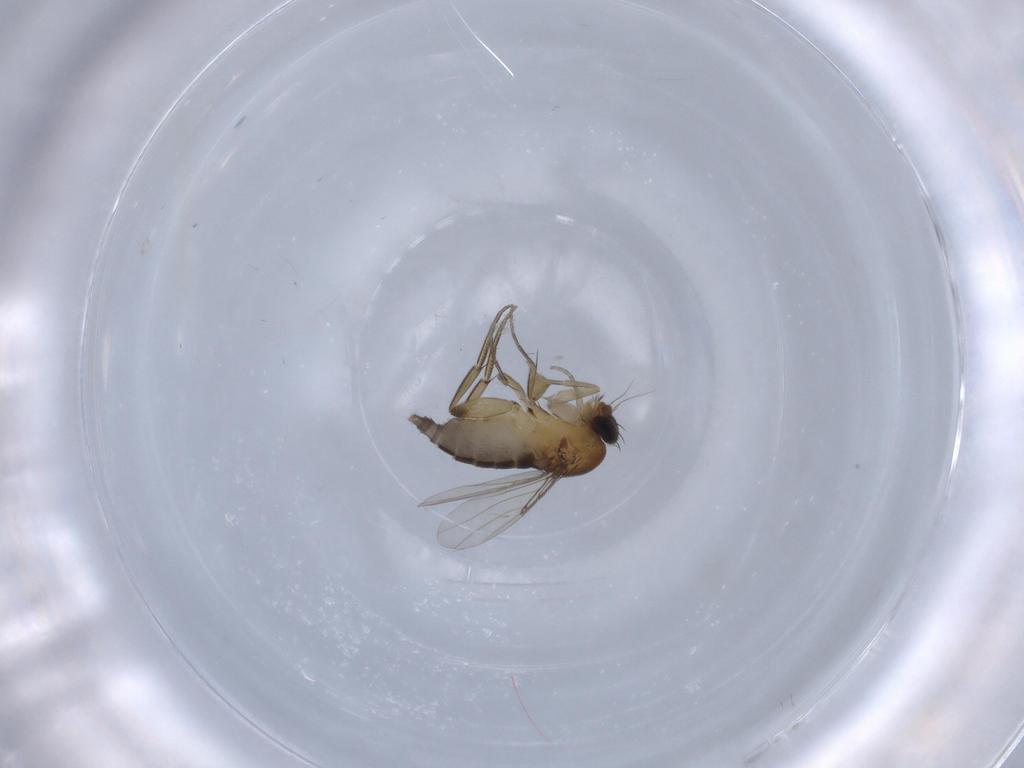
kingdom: Animalia
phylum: Arthropoda
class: Insecta
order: Diptera
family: Phoridae
